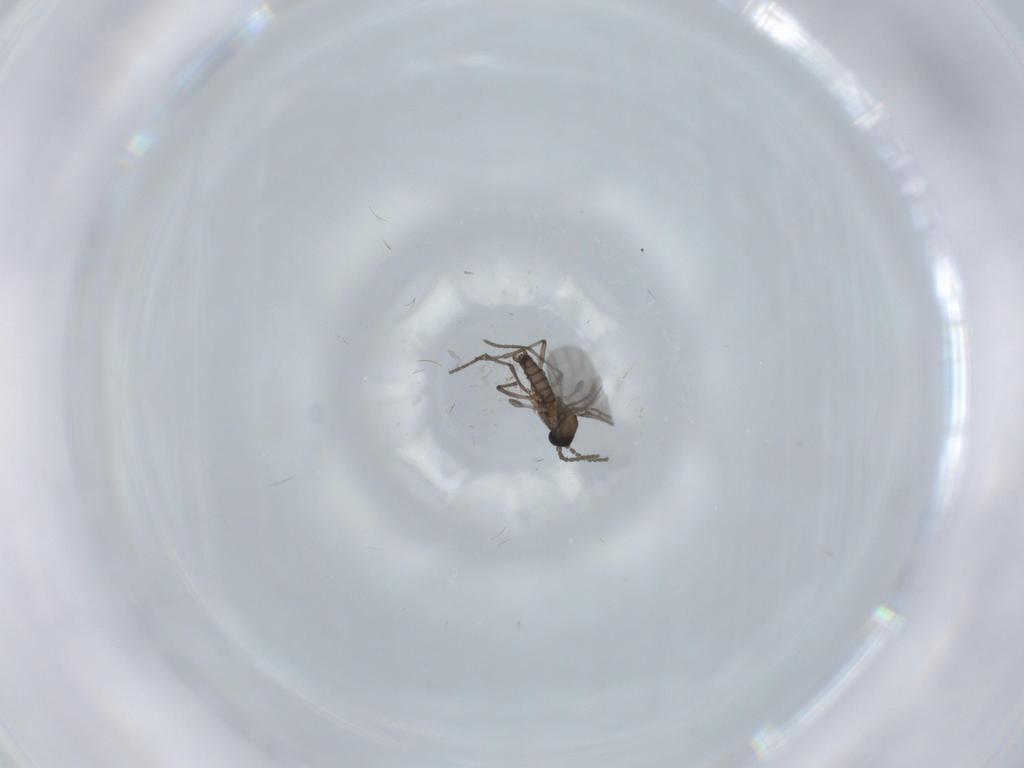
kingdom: Animalia
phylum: Arthropoda
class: Insecta
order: Diptera
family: Sciaridae
